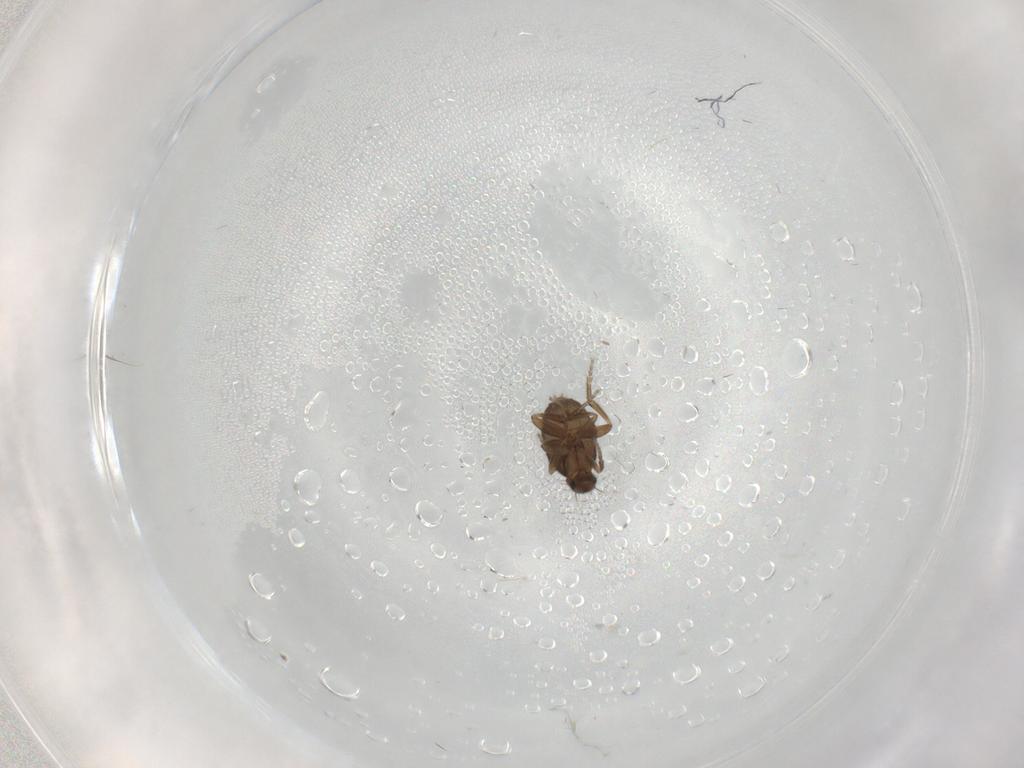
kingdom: Animalia
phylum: Arthropoda
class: Insecta
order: Diptera
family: Phoridae
